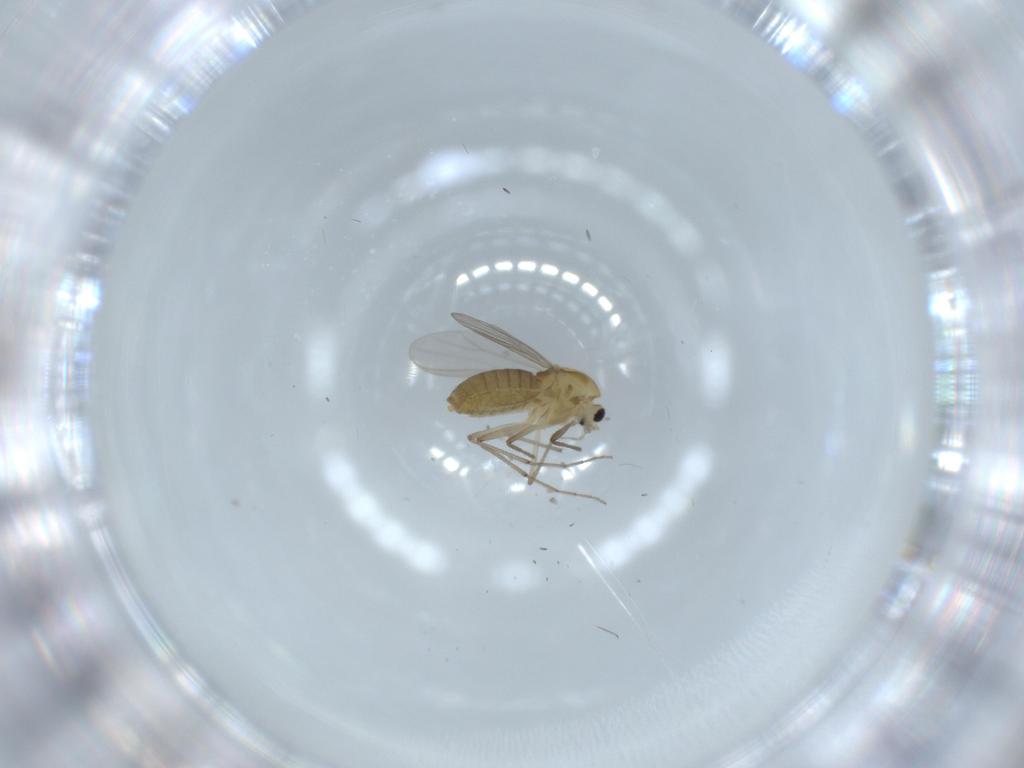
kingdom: Animalia
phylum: Arthropoda
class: Insecta
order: Diptera
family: Chironomidae
